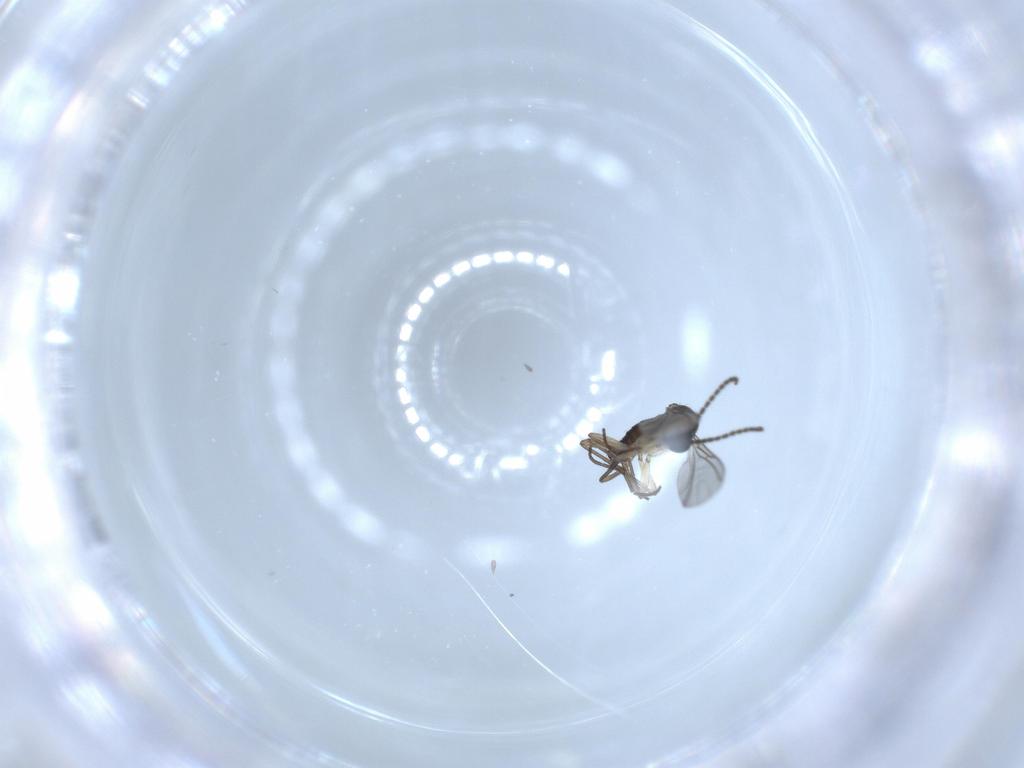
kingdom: Animalia
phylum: Arthropoda
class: Insecta
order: Diptera
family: Sciaridae
